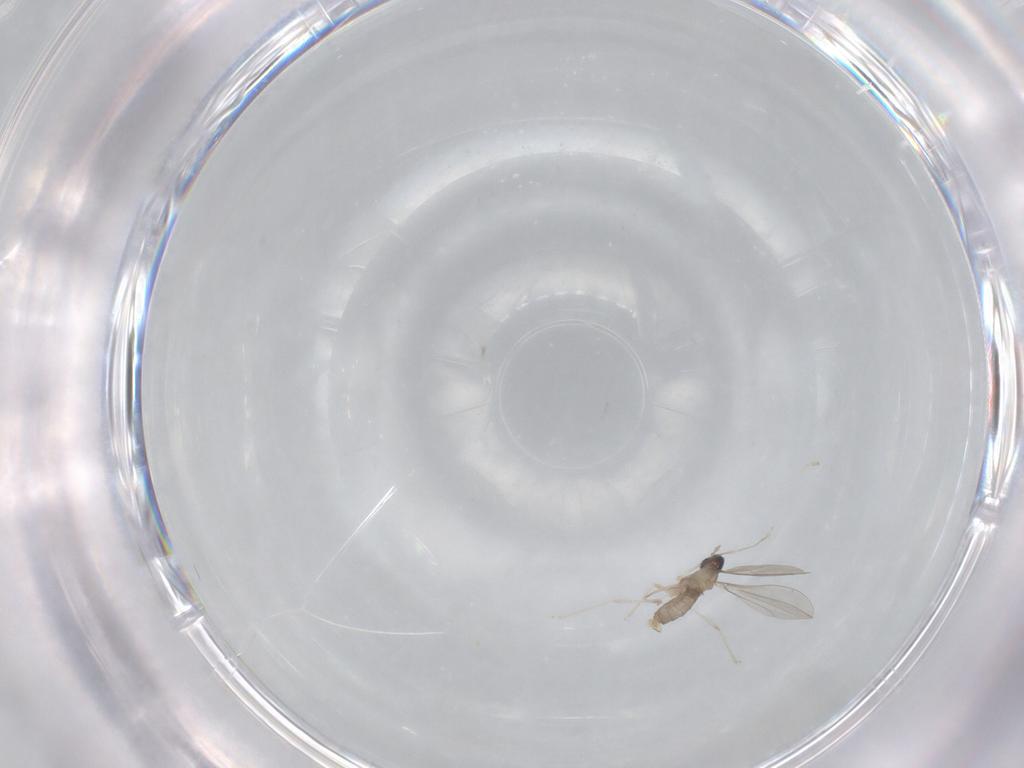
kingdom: Animalia
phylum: Arthropoda
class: Insecta
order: Diptera
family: Cecidomyiidae
